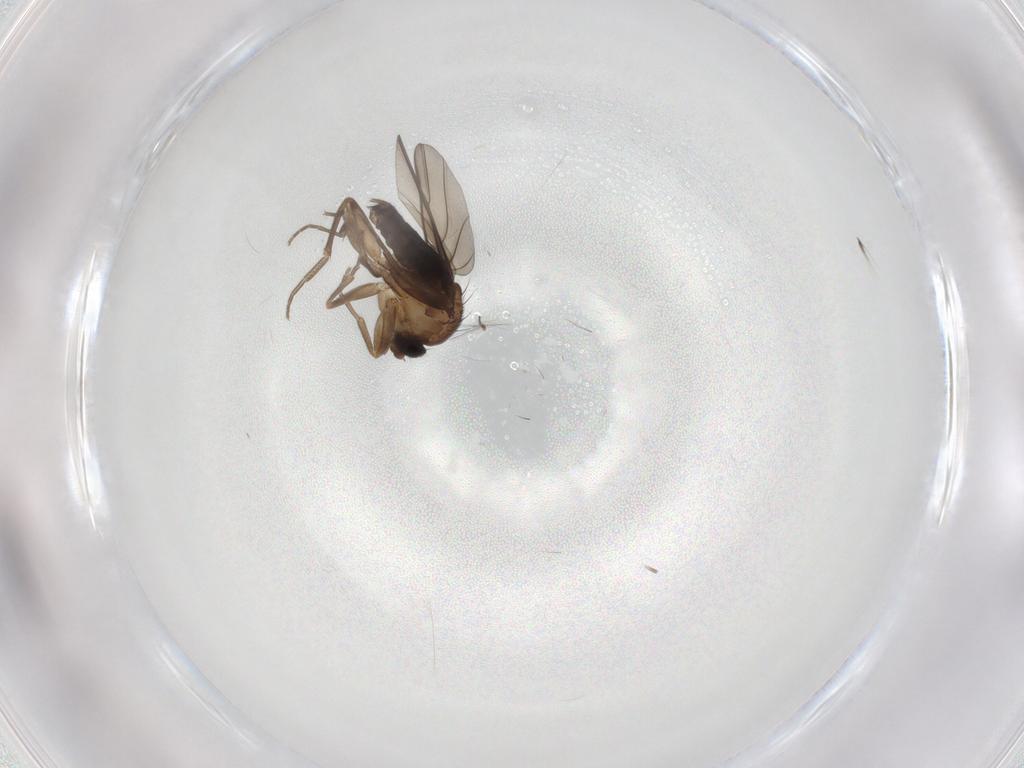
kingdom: Animalia
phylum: Arthropoda
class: Insecta
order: Diptera
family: Phoridae
